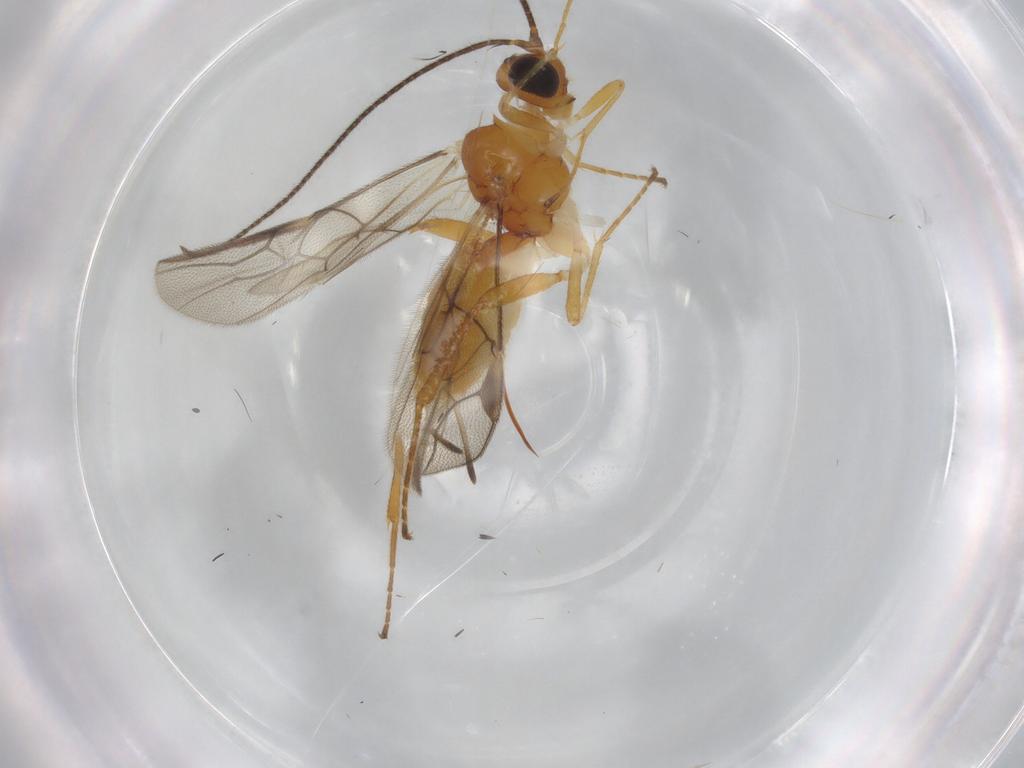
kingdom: Animalia
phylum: Arthropoda
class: Insecta
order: Hymenoptera
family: Braconidae
